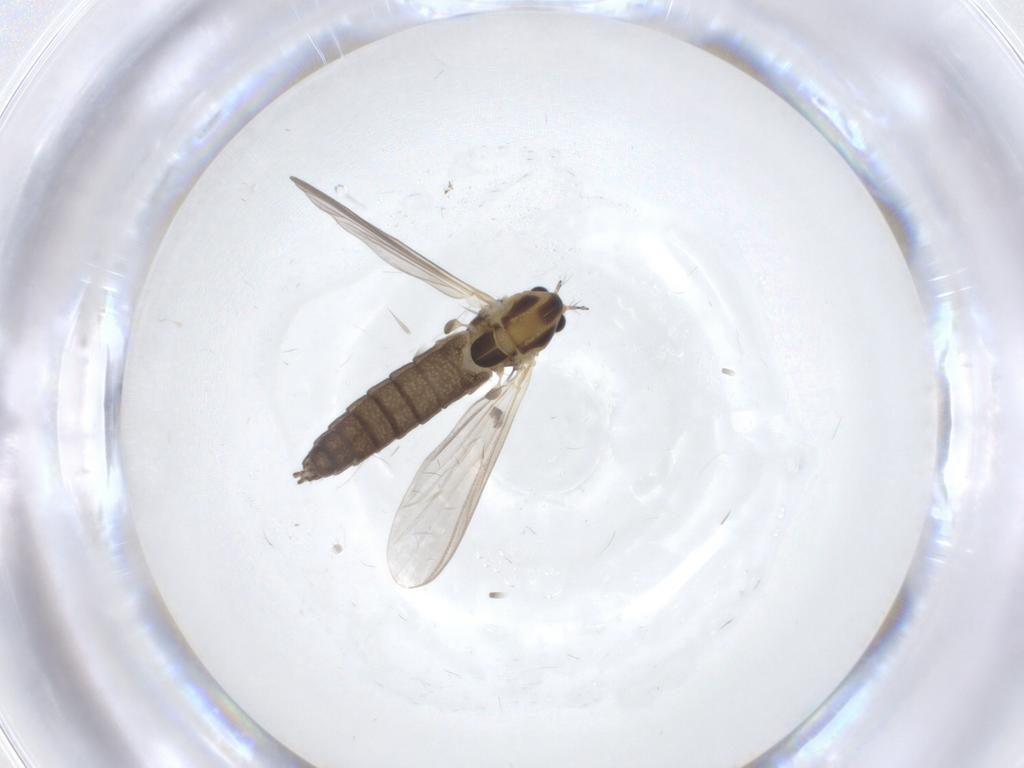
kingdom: Animalia
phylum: Arthropoda
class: Insecta
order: Diptera
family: Chironomidae
